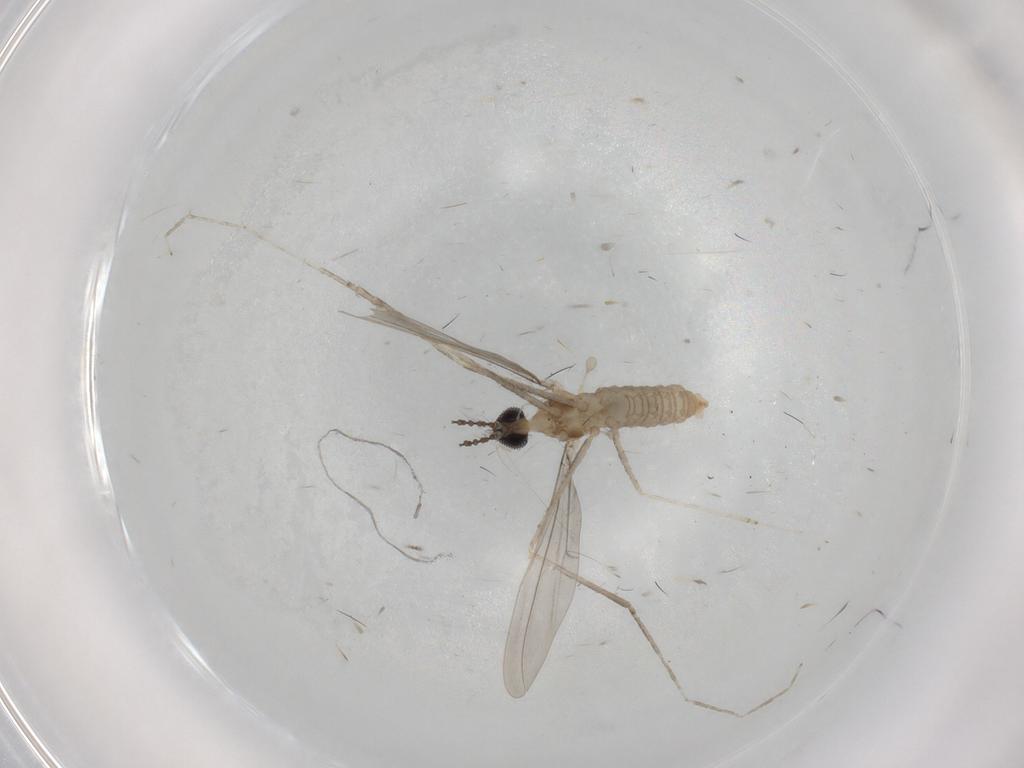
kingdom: Animalia
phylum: Arthropoda
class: Insecta
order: Diptera
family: Cecidomyiidae
